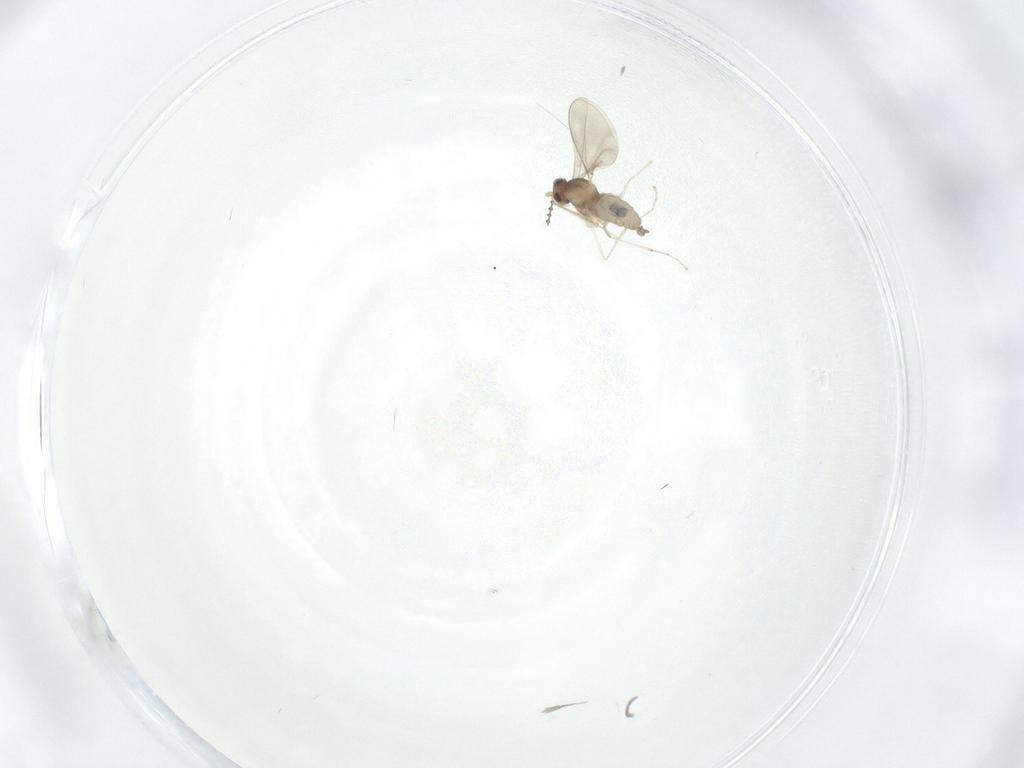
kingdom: Animalia
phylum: Arthropoda
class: Insecta
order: Diptera
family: Cecidomyiidae
